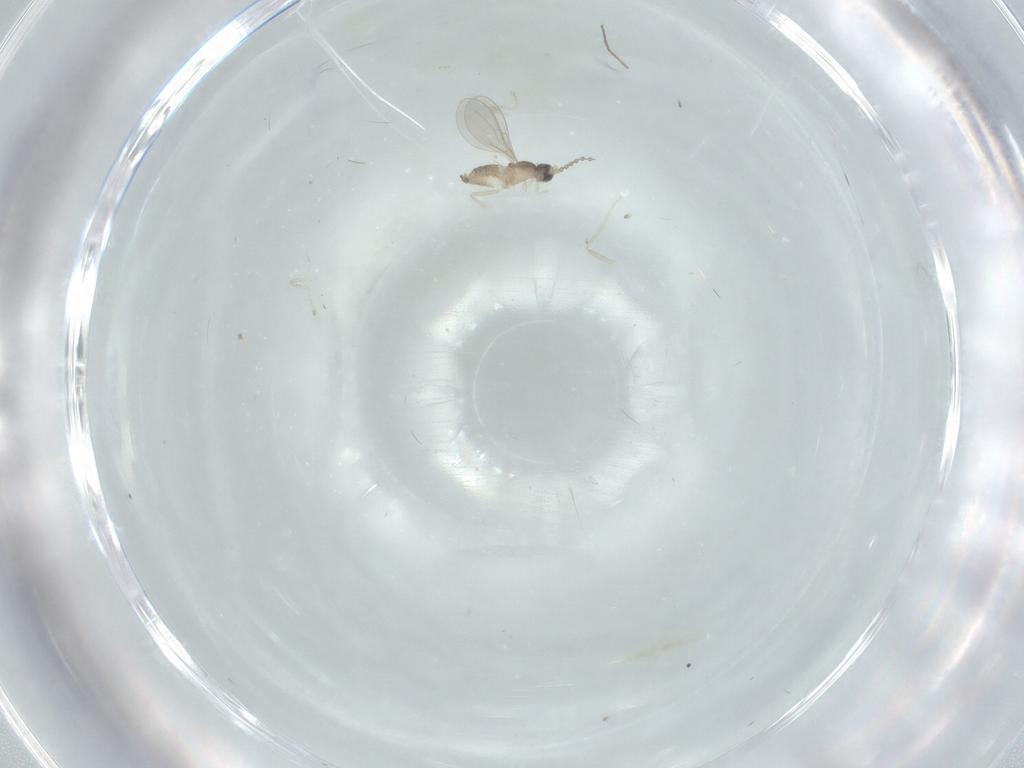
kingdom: Animalia
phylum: Arthropoda
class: Insecta
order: Diptera
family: Cecidomyiidae
